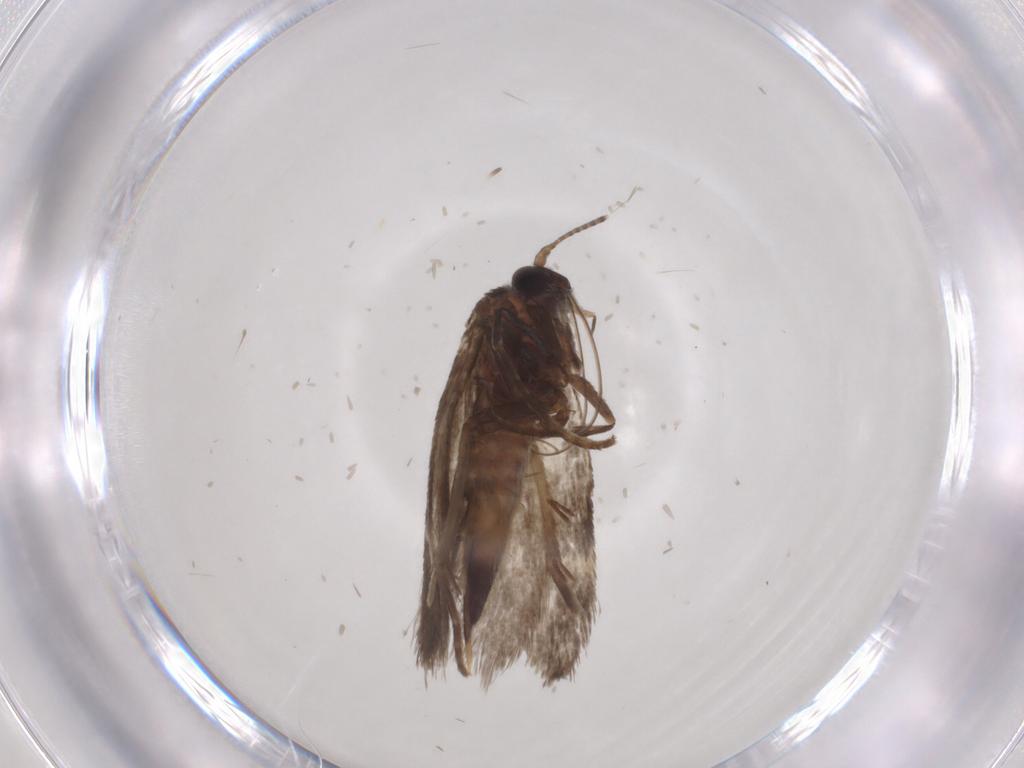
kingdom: Animalia
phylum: Arthropoda
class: Insecta
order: Lepidoptera
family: Adelidae
